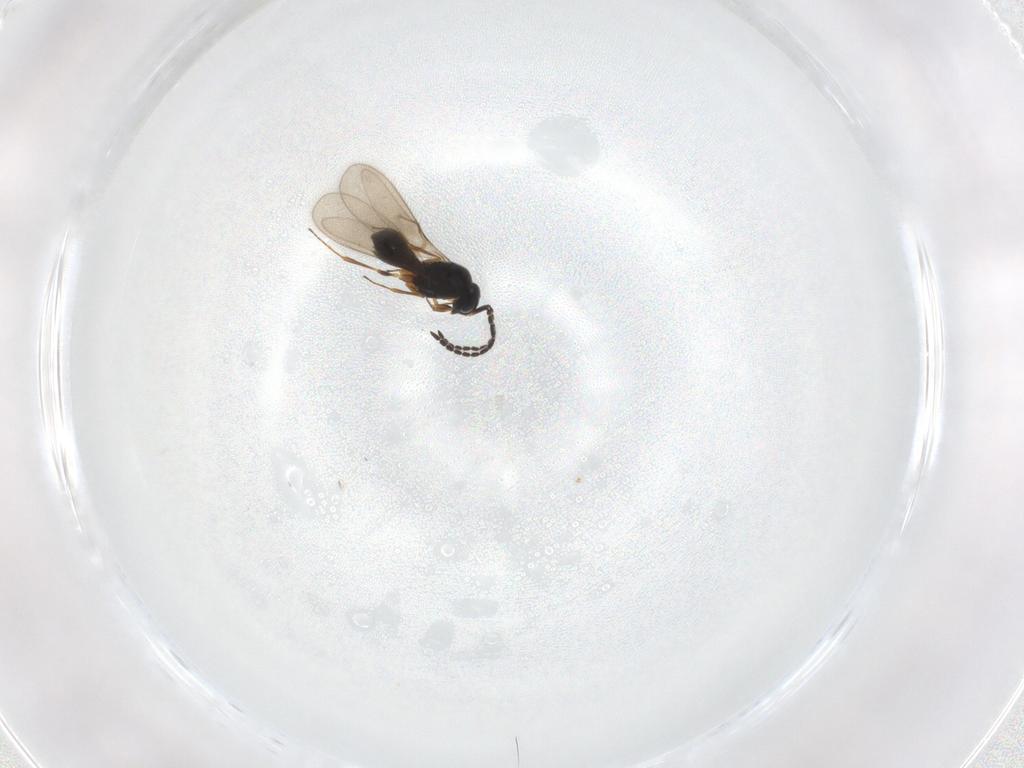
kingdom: Animalia
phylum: Arthropoda
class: Insecta
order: Hymenoptera
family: Scelionidae
